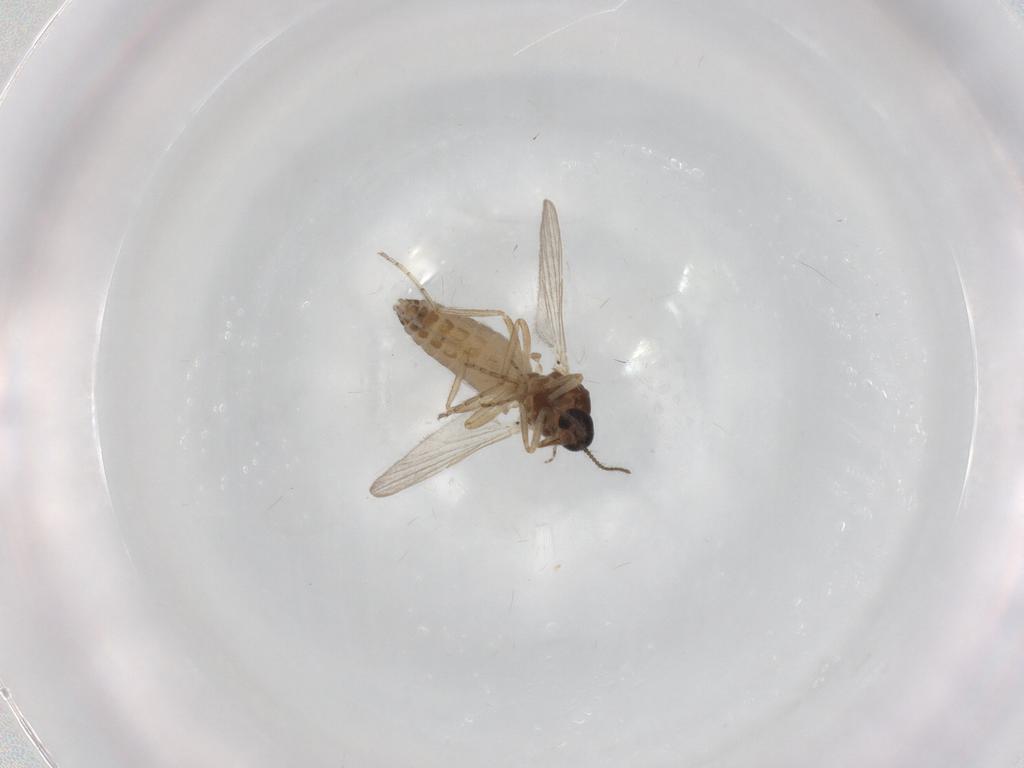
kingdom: Animalia
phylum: Arthropoda
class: Insecta
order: Diptera
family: Ceratopogonidae
